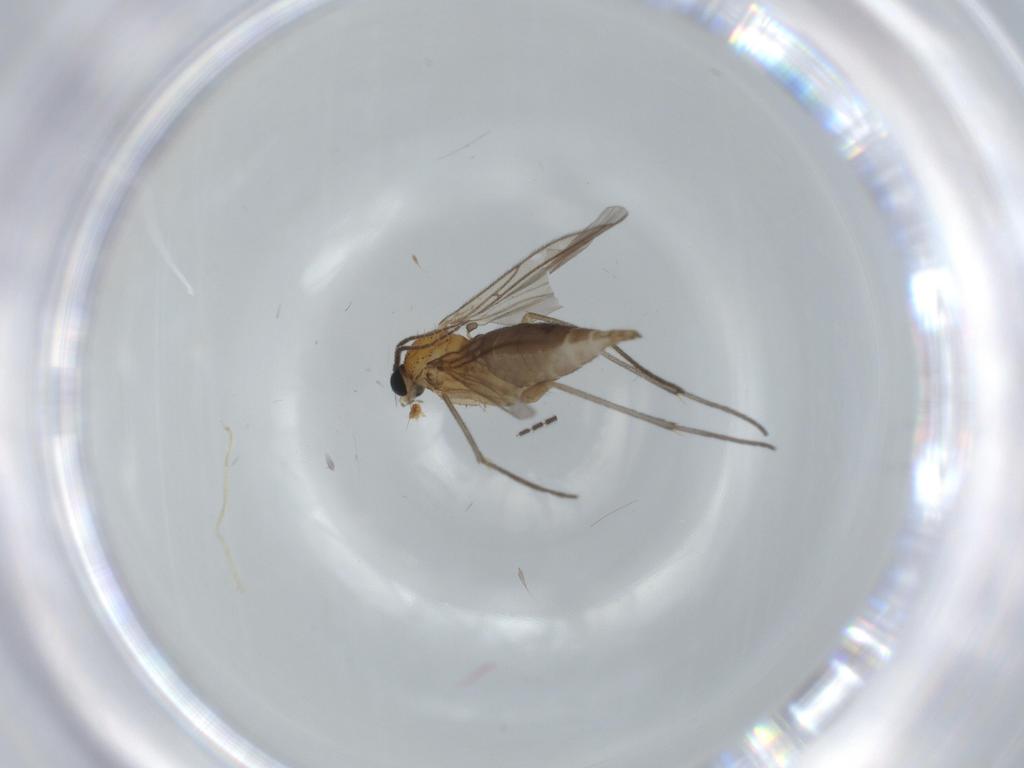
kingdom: Animalia
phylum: Arthropoda
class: Insecta
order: Diptera
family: Sciaridae
